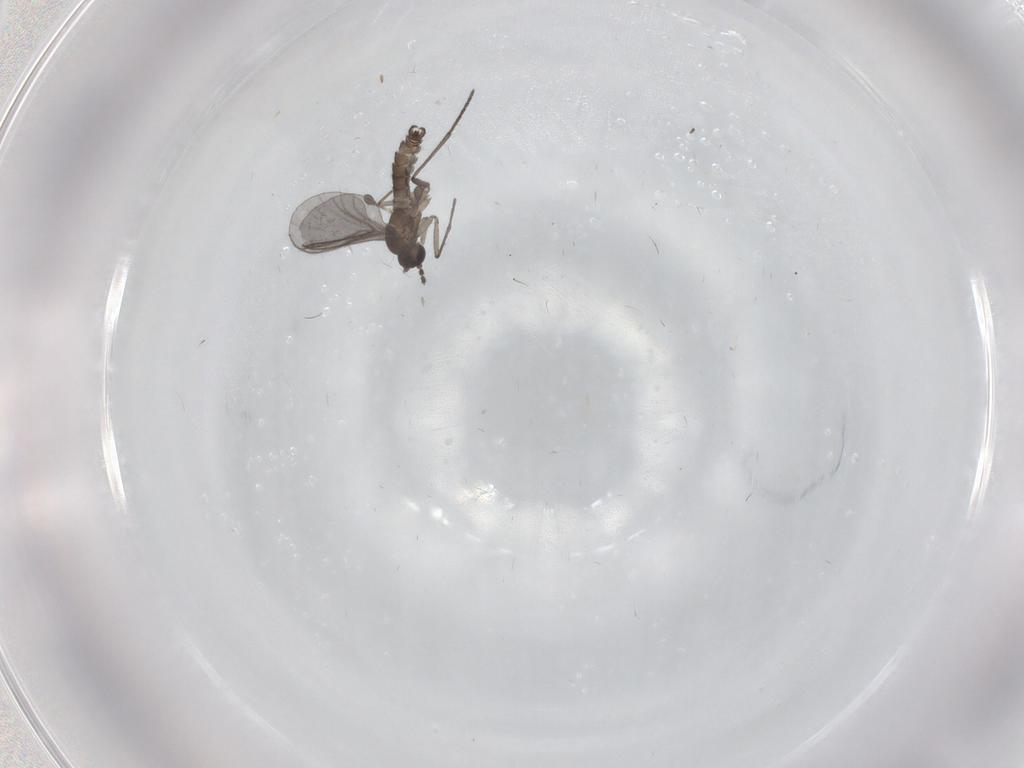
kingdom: Animalia
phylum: Arthropoda
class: Insecta
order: Diptera
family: Sciaridae
